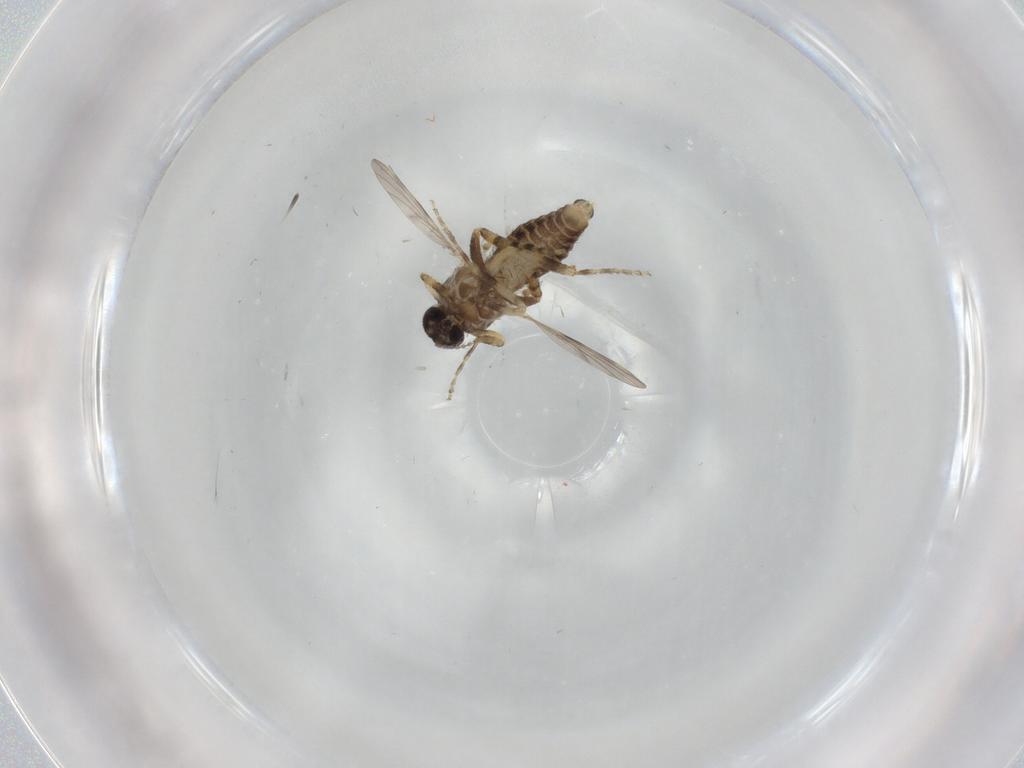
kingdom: Animalia
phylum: Arthropoda
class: Insecta
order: Diptera
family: Ceratopogonidae
